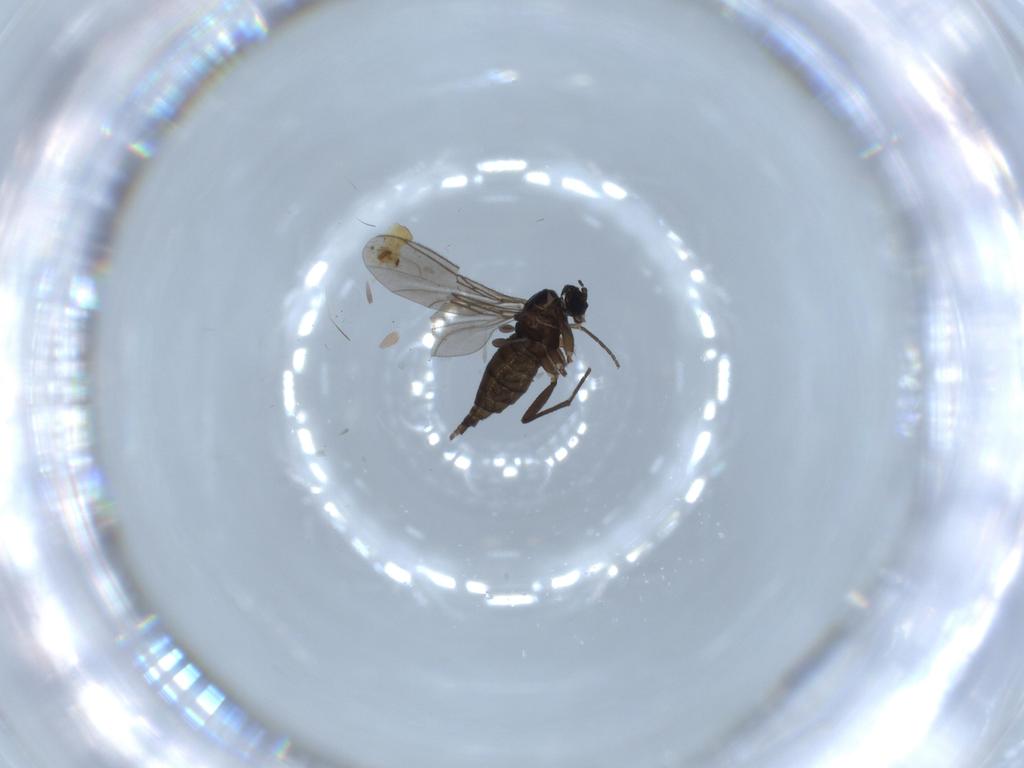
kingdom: Animalia
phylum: Arthropoda
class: Insecta
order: Diptera
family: Sciaridae
